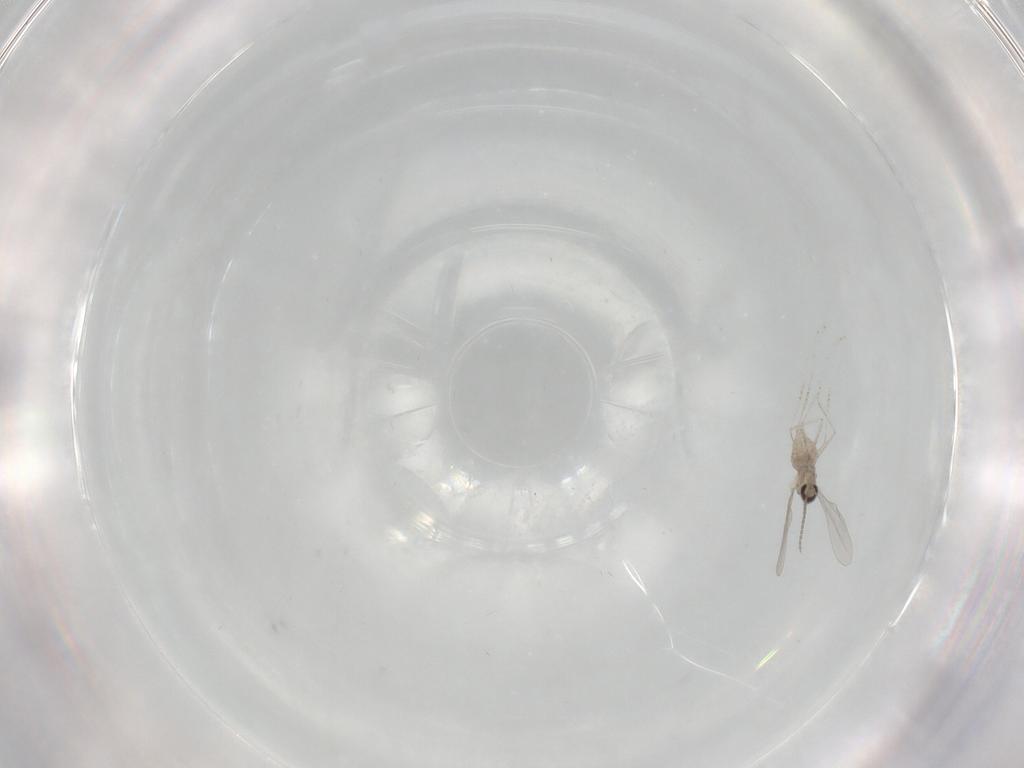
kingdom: Animalia
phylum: Arthropoda
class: Insecta
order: Diptera
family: Cecidomyiidae
